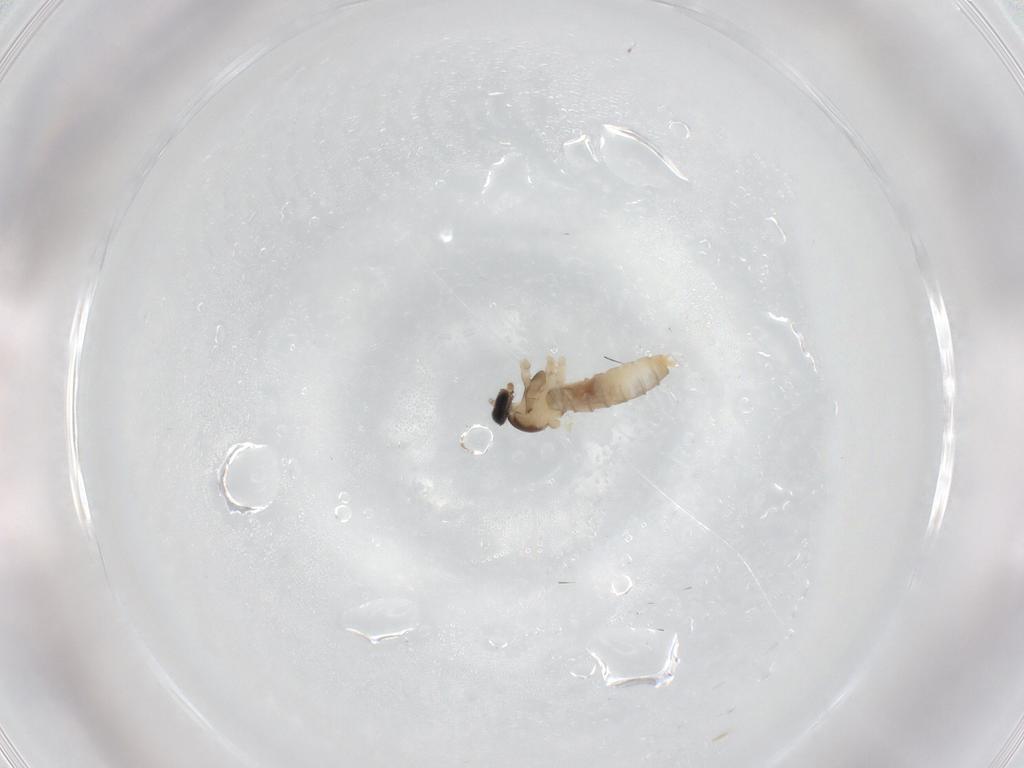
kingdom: Animalia
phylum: Arthropoda
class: Insecta
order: Diptera
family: Cecidomyiidae
